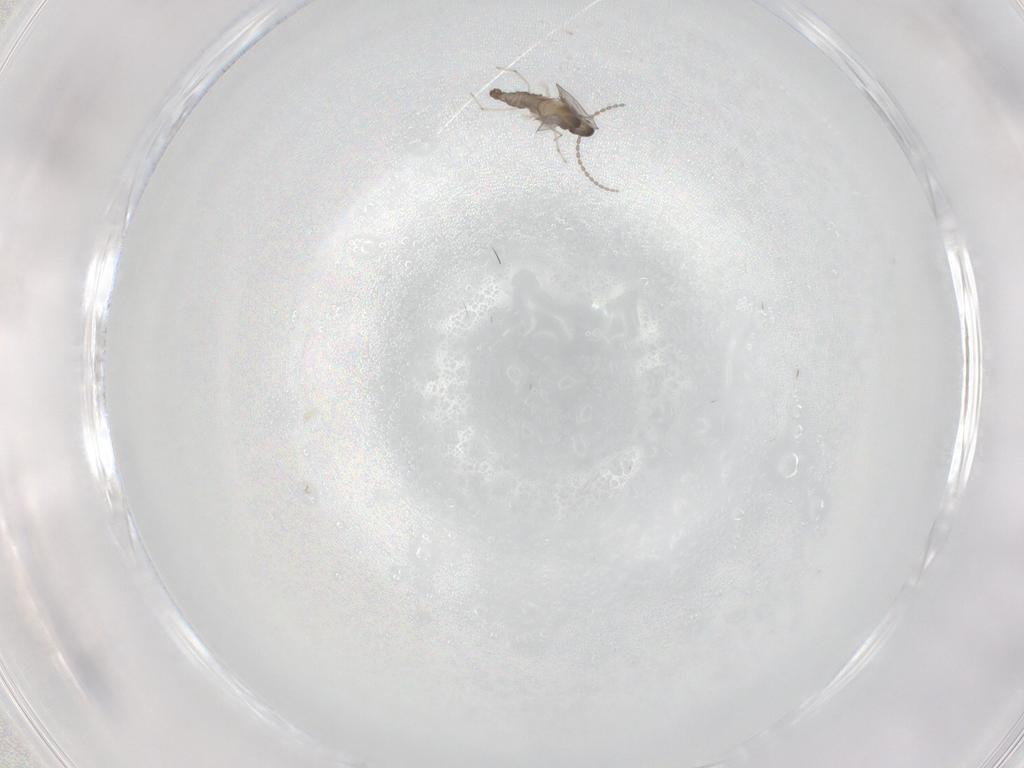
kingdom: Animalia
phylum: Arthropoda
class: Insecta
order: Diptera
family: Cecidomyiidae
